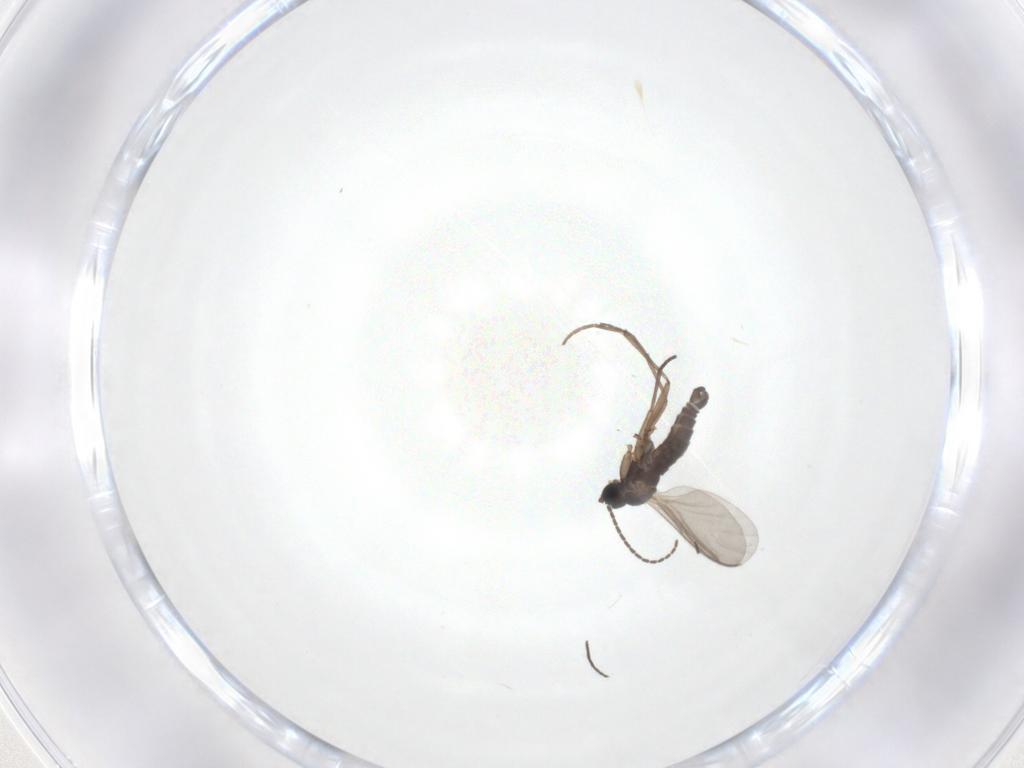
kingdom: Animalia
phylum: Arthropoda
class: Insecta
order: Diptera
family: Sciaridae
